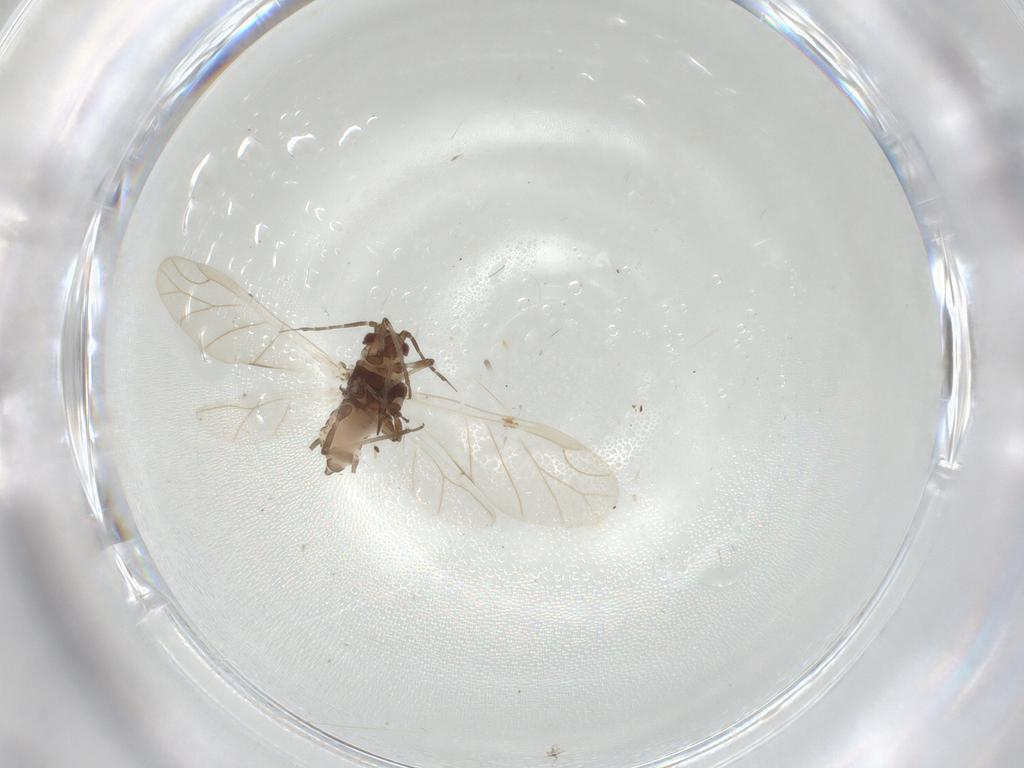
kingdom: Animalia
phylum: Arthropoda
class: Insecta
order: Hemiptera
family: Aphididae
